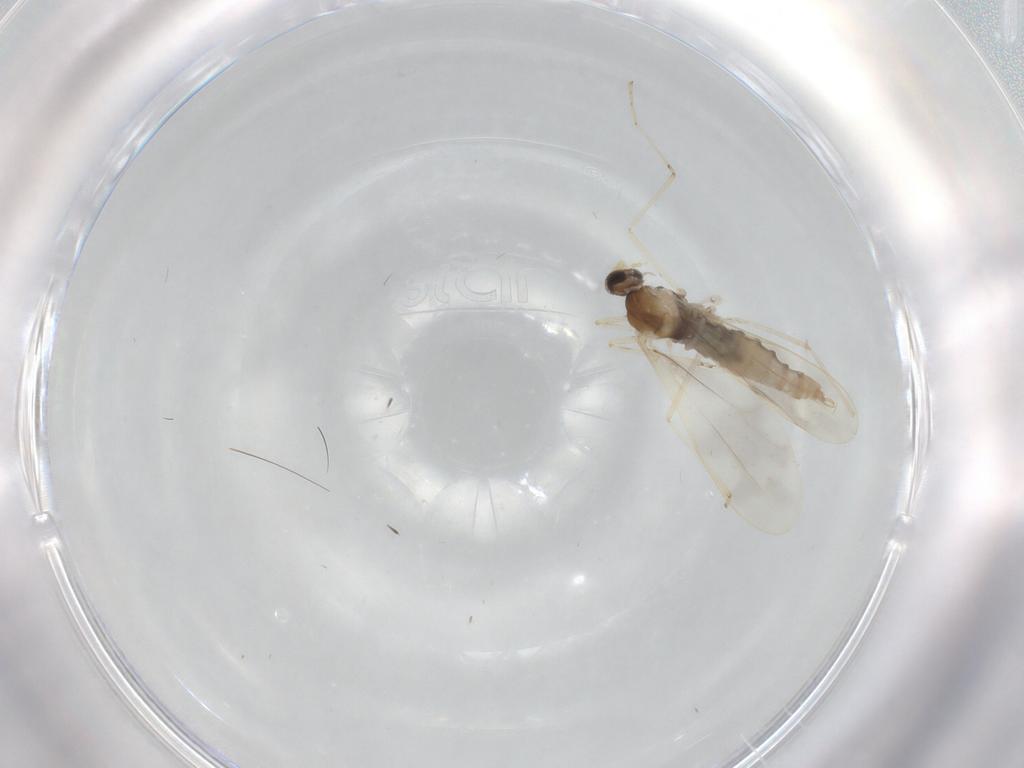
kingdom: Animalia
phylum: Arthropoda
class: Insecta
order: Diptera
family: Cecidomyiidae
